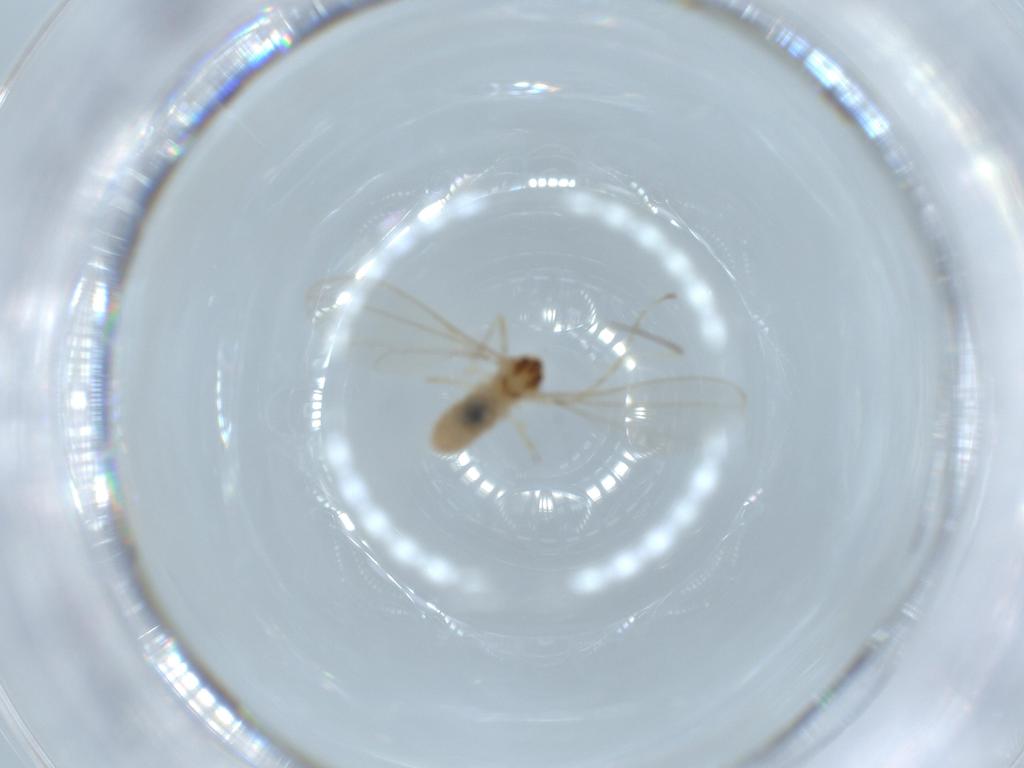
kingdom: Animalia
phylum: Arthropoda
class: Insecta
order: Diptera
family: Cecidomyiidae
